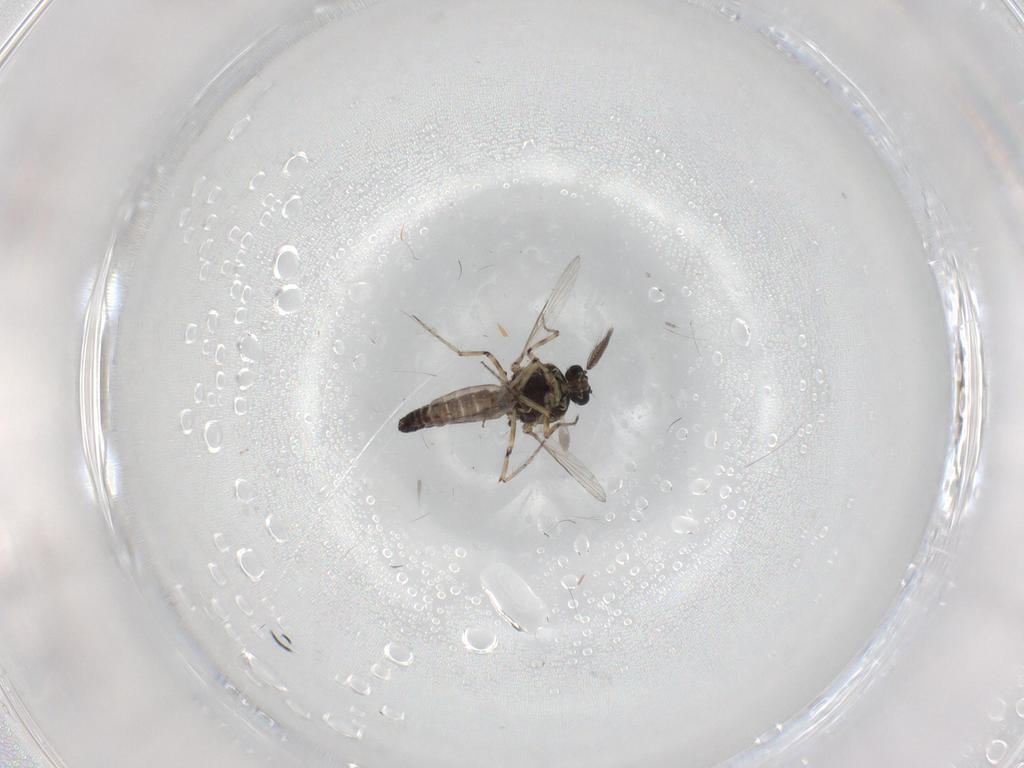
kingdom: Animalia
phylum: Arthropoda
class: Insecta
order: Diptera
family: Cecidomyiidae
